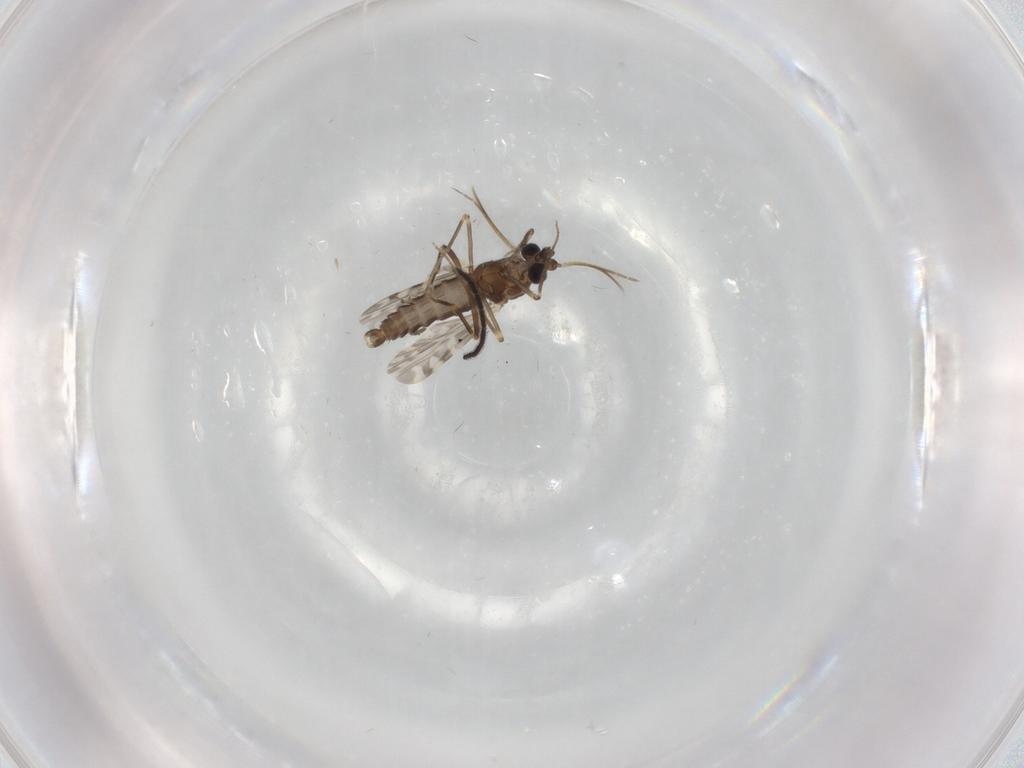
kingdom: Animalia
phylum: Arthropoda
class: Insecta
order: Diptera
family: Ceratopogonidae
